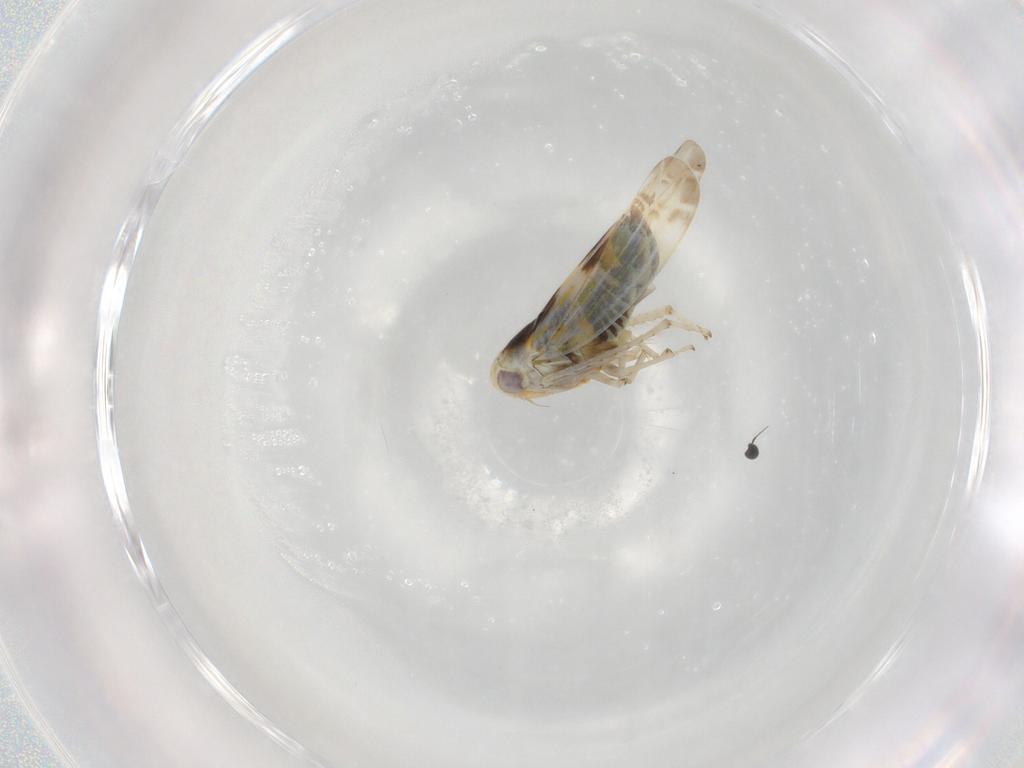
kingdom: Animalia
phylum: Arthropoda
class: Insecta
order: Hemiptera
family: Cicadellidae
